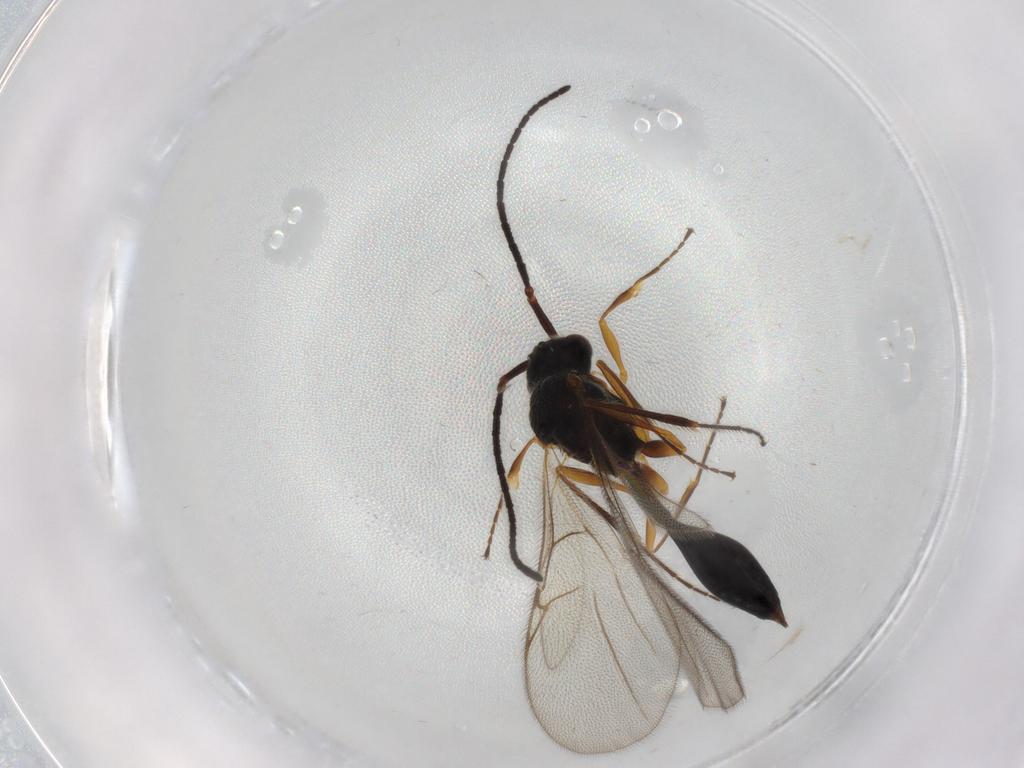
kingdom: Animalia
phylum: Arthropoda
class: Insecta
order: Hymenoptera
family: Diapriidae
